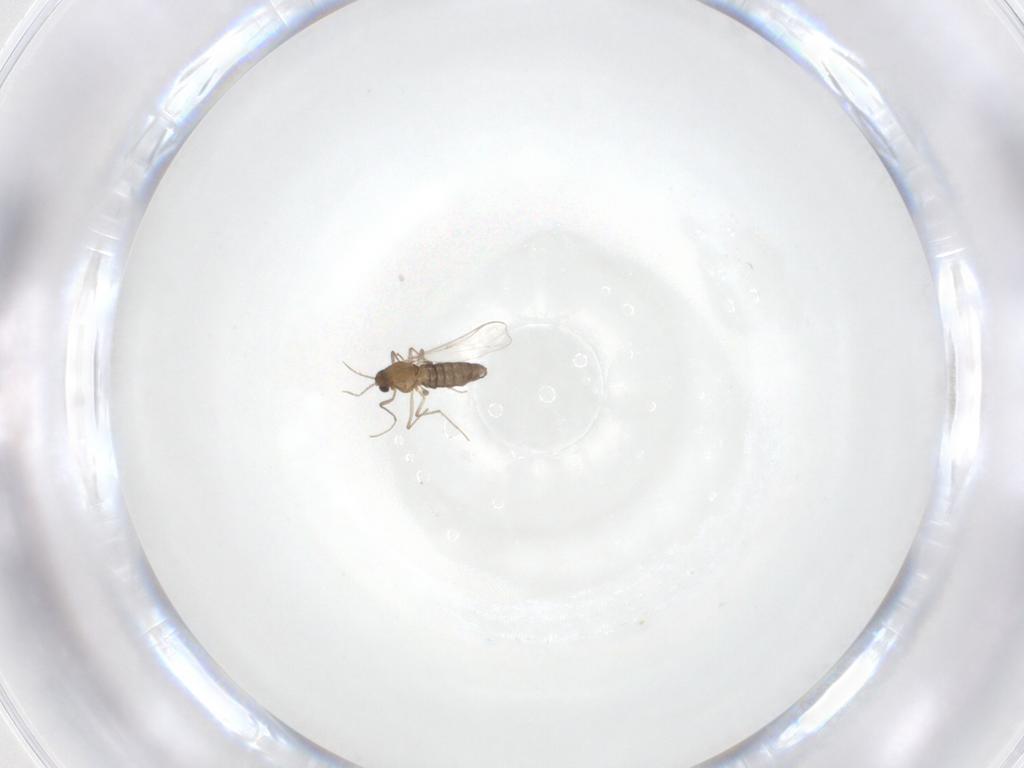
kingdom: Animalia
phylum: Arthropoda
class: Insecta
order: Diptera
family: Chironomidae
